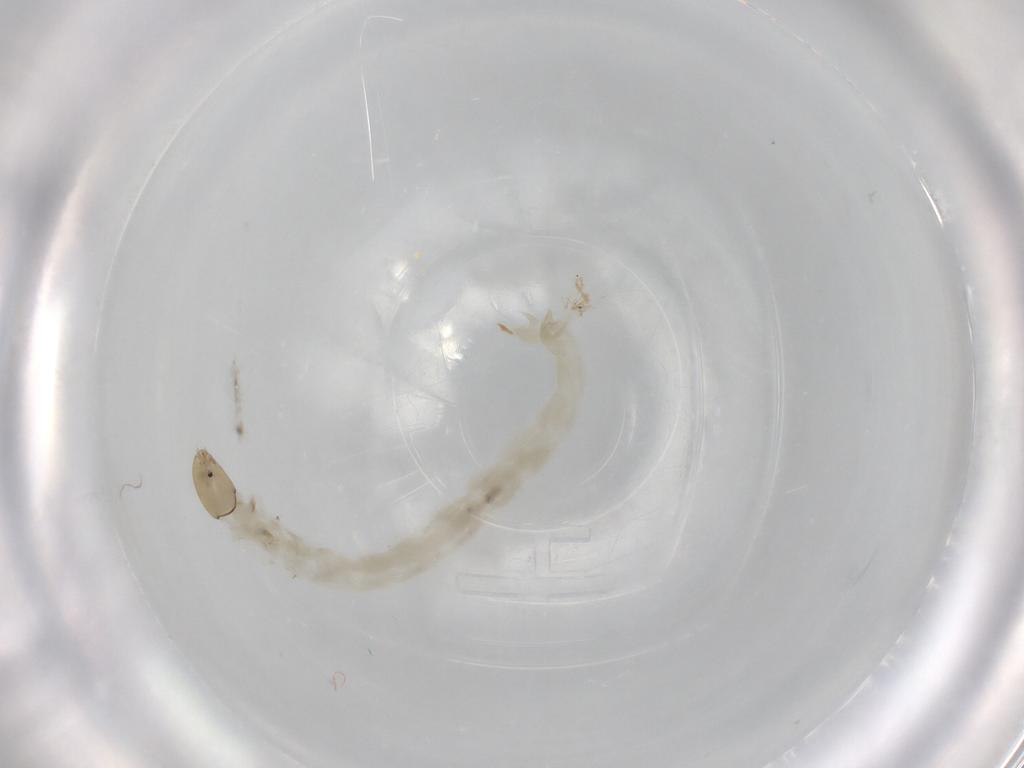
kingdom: Animalia
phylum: Arthropoda
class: Insecta
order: Diptera
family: Chironomidae
